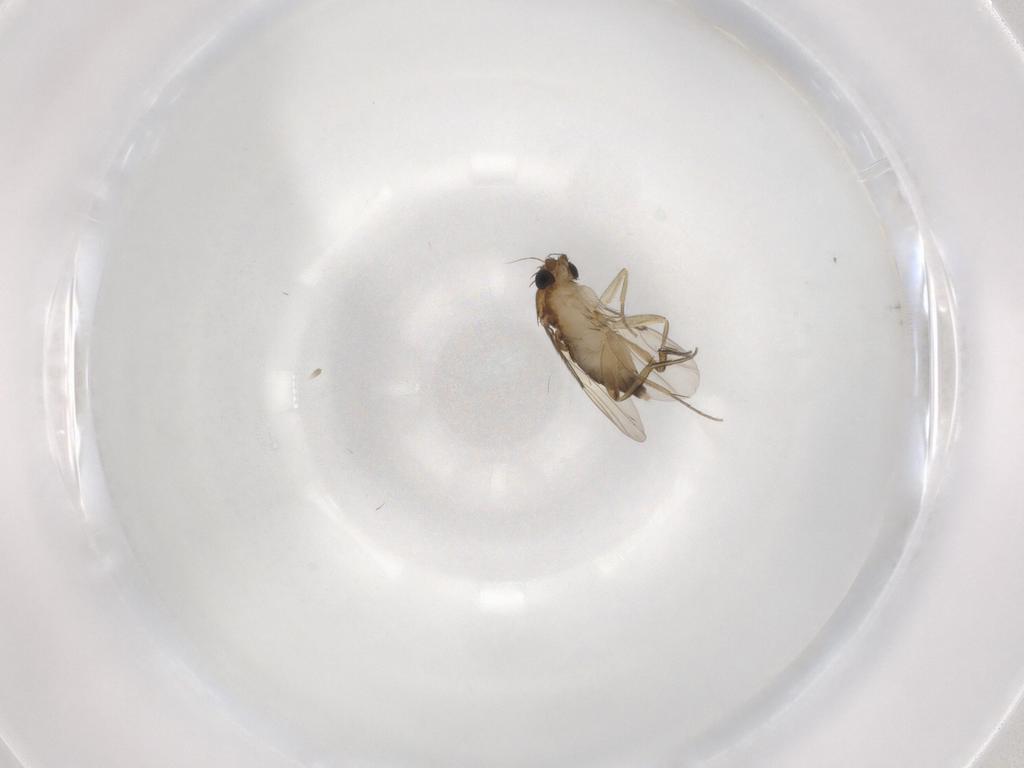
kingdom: Animalia
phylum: Arthropoda
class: Insecta
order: Diptera
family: Phoridae
